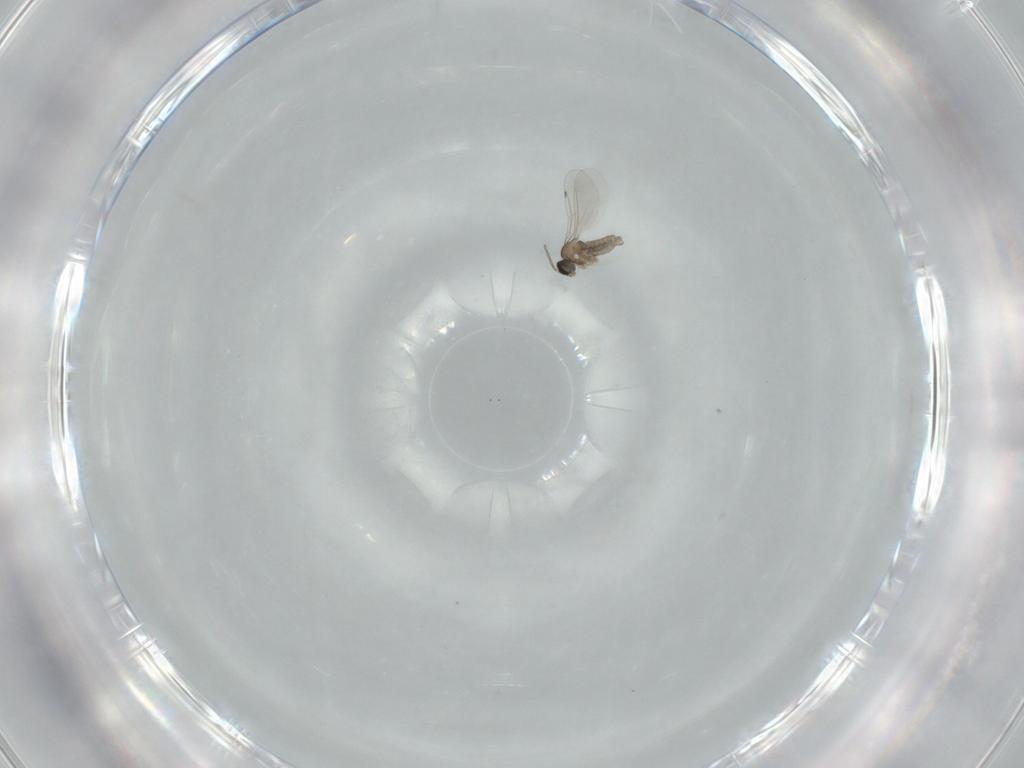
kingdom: Animalia
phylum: Arthropoda
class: Insecta
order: Diptera
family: Cecidomyiidae
